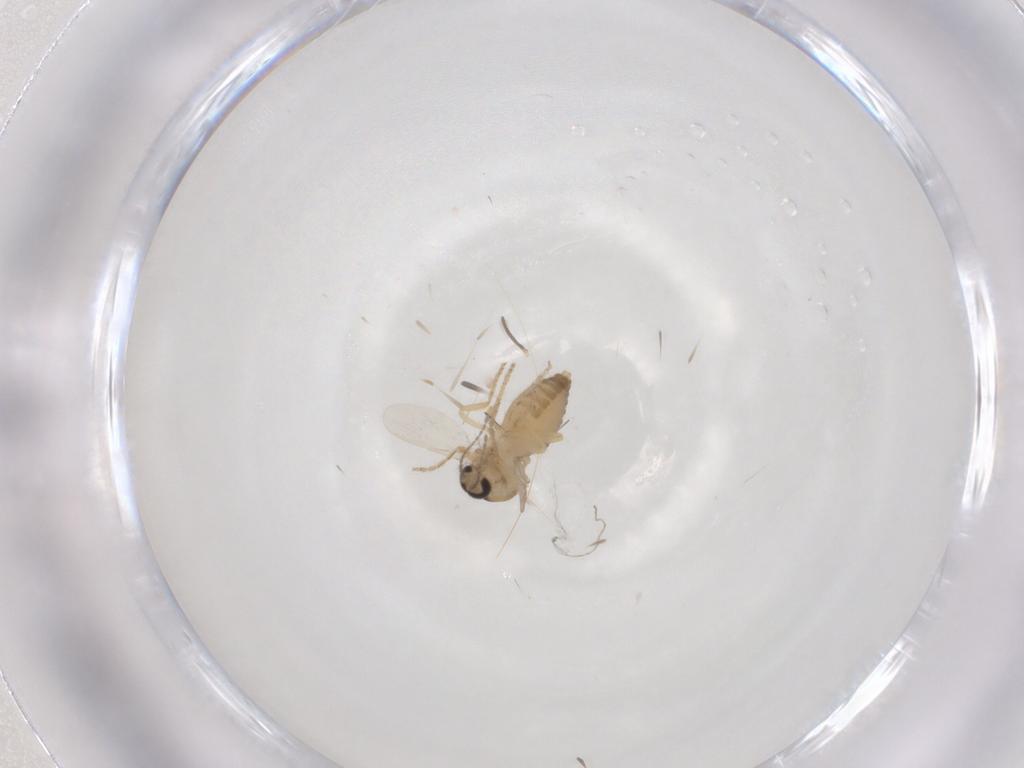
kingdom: Animalia
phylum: Arthropoda
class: Insecta
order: Diptera
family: Ceratopogonidae
